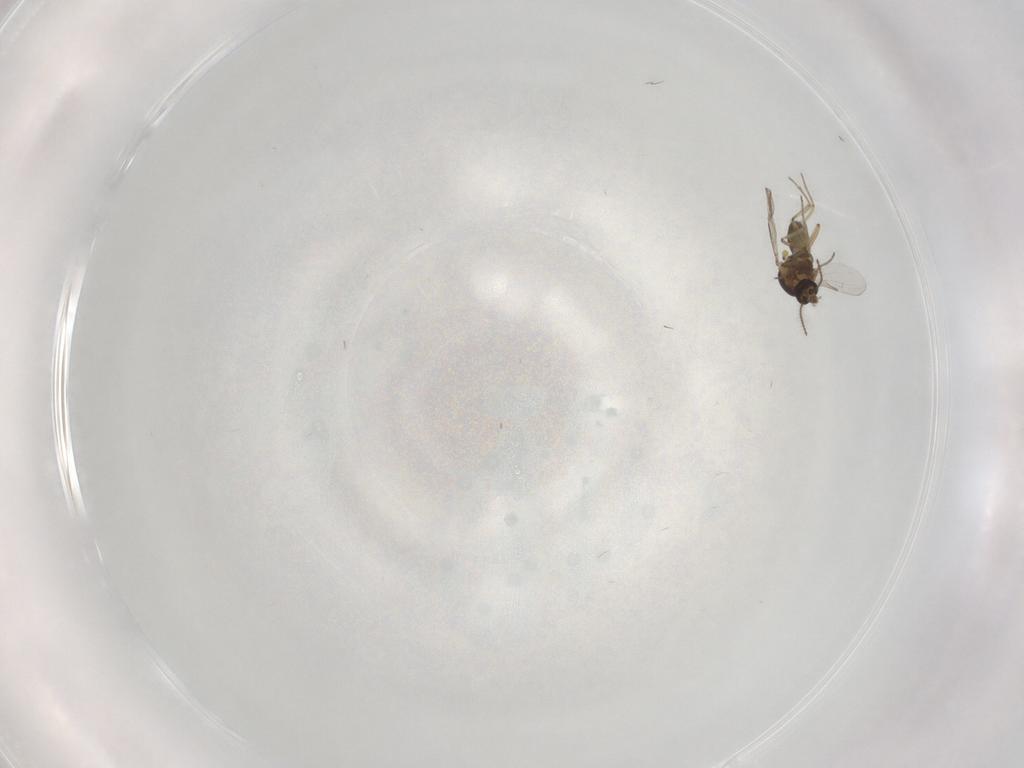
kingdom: Animalia
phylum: Arthropoda
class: Insecta
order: Diptera
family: Ceratopogonidae
